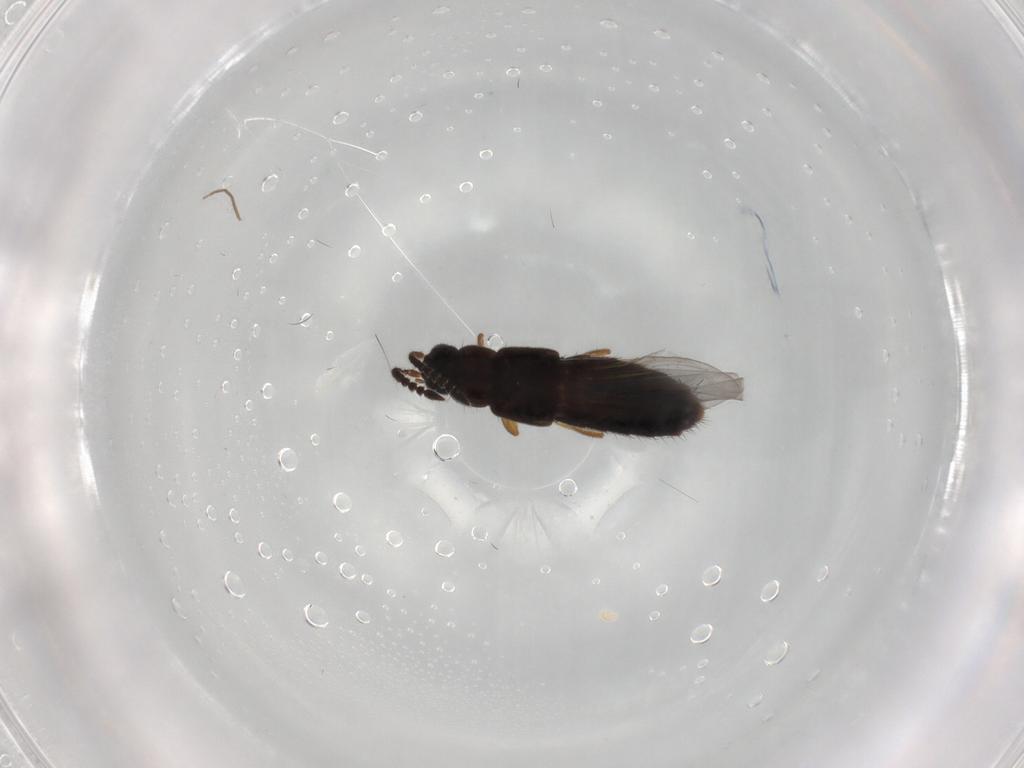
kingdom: Animalia
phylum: Arthropoda
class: Insecta
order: Coleoptera
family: Staphylinidae
